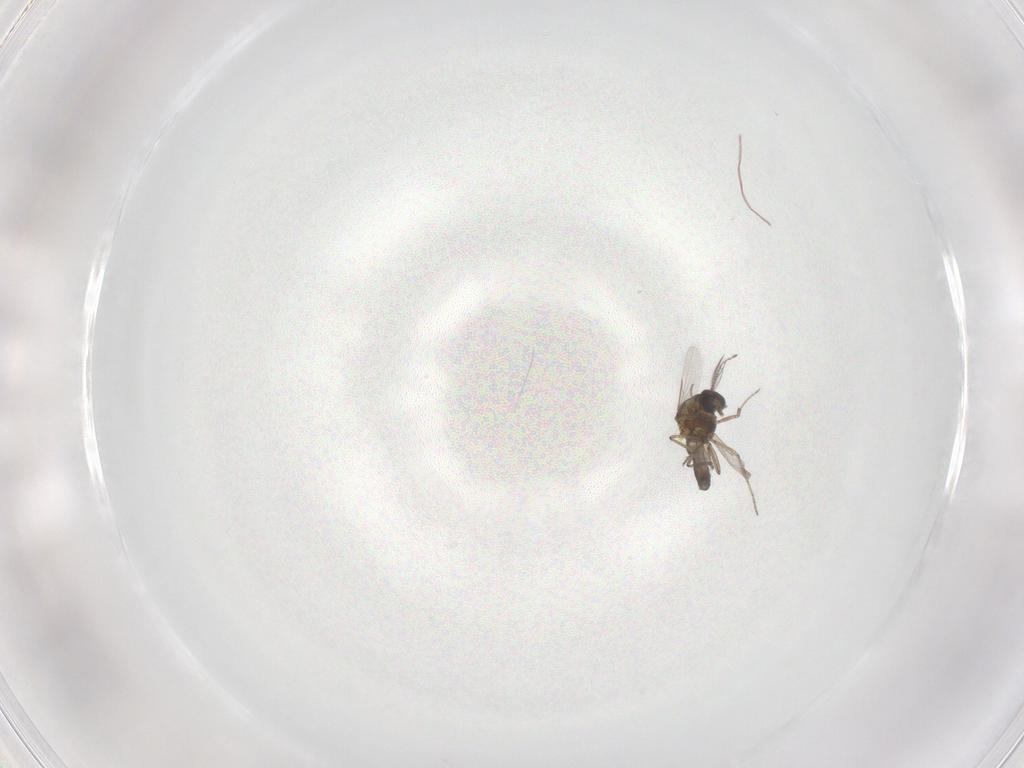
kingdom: Animalia
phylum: Arthropoda
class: Insecta
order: Diptera
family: Ceratopogonidae
